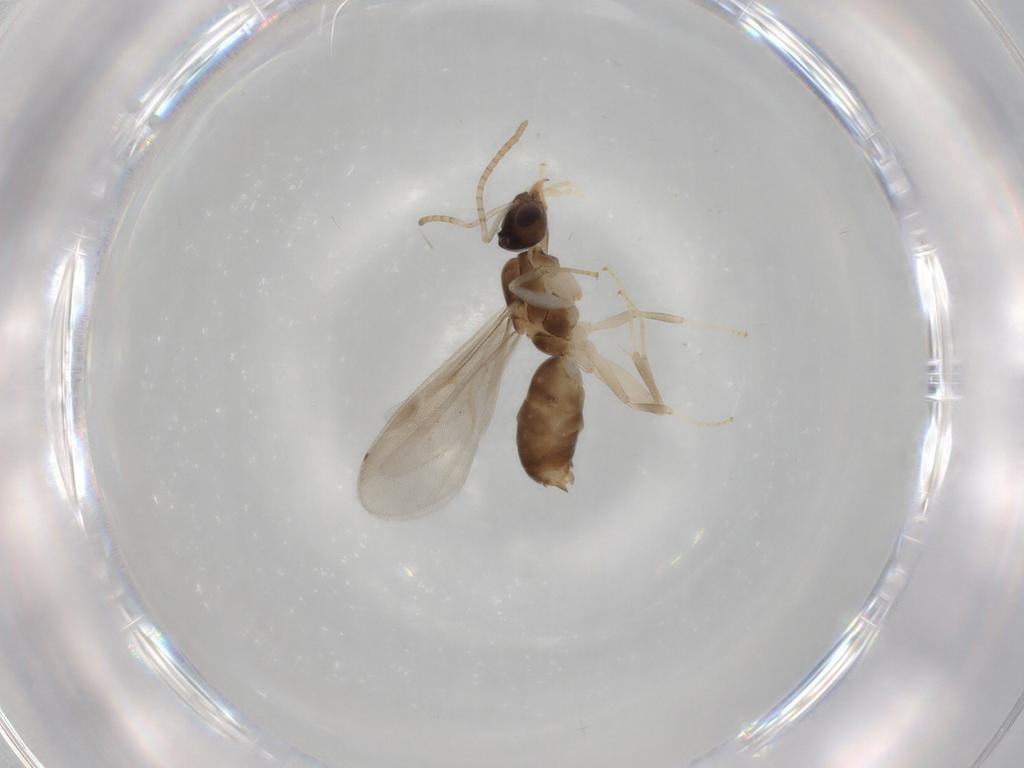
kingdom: Animalia
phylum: Arthropoda
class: Insecta
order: Hymenoptera
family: Formicidae
